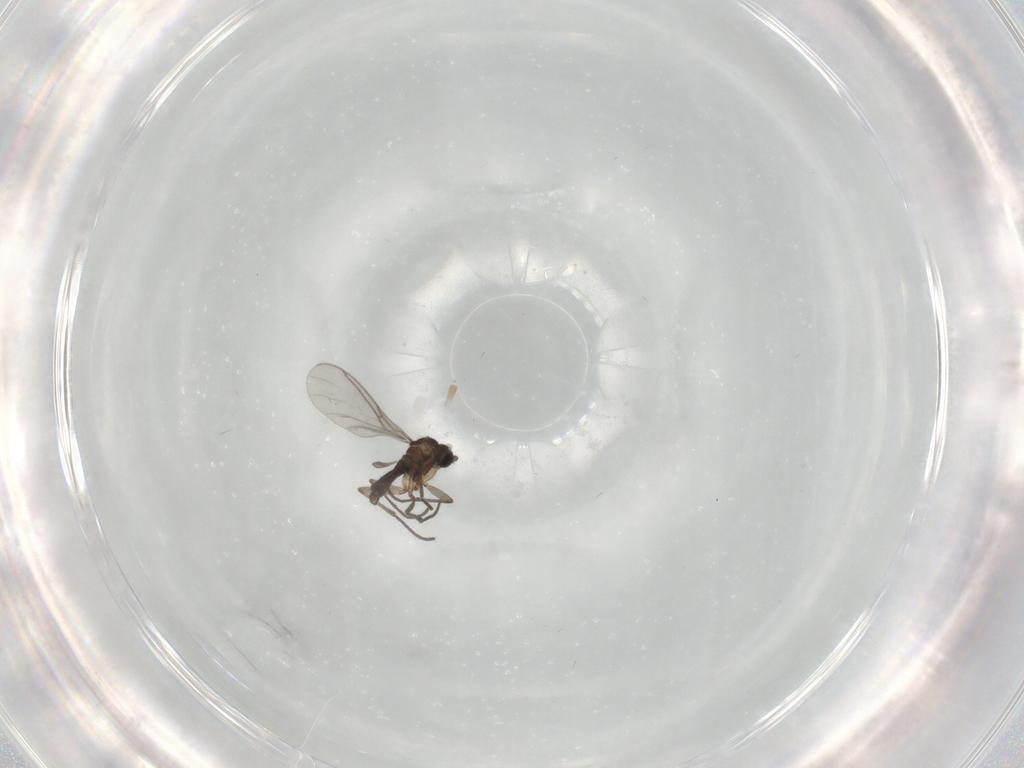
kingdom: Animalia
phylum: Arthropoda
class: Insecta
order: Diptera
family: Sciaridae
